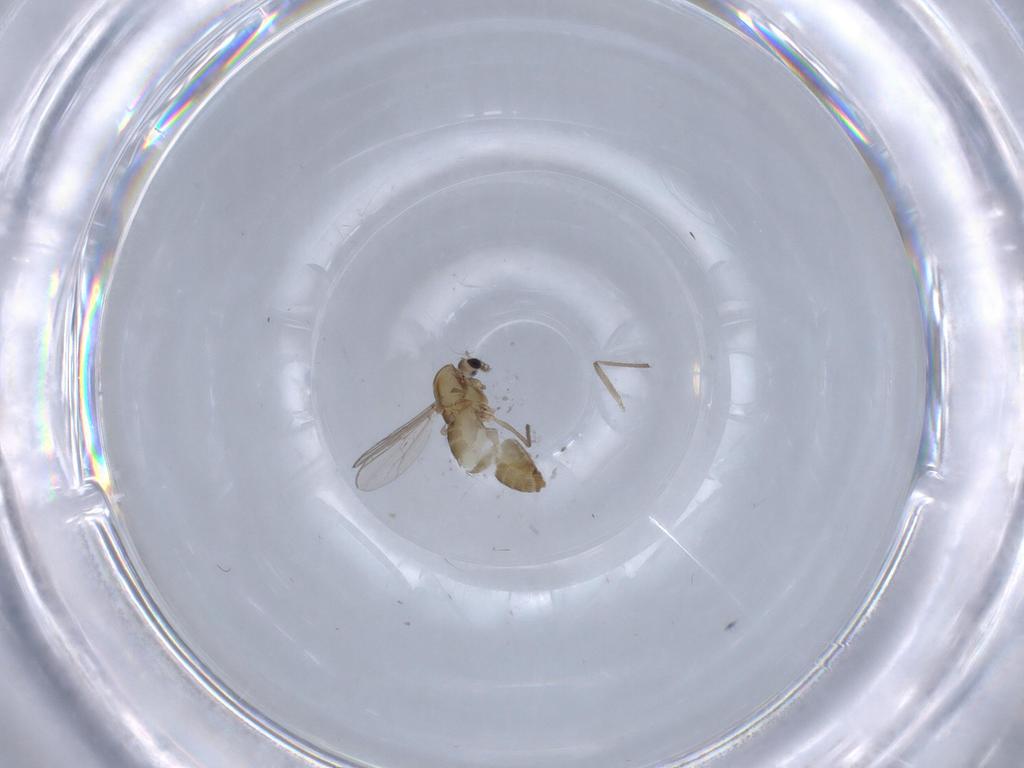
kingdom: Animalia
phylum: Arthropoda
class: Insecta
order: Diptera
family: Chironomidae
